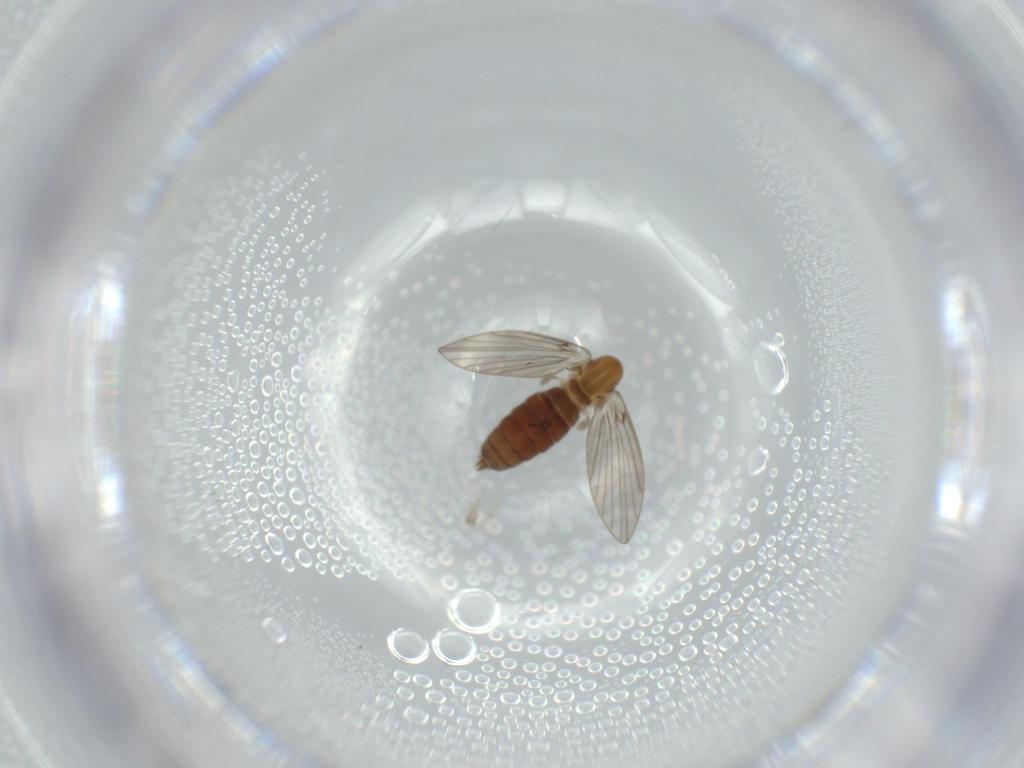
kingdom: Animalia
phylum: Arthropoda
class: Insecta
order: Diptera
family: Psychodidae
